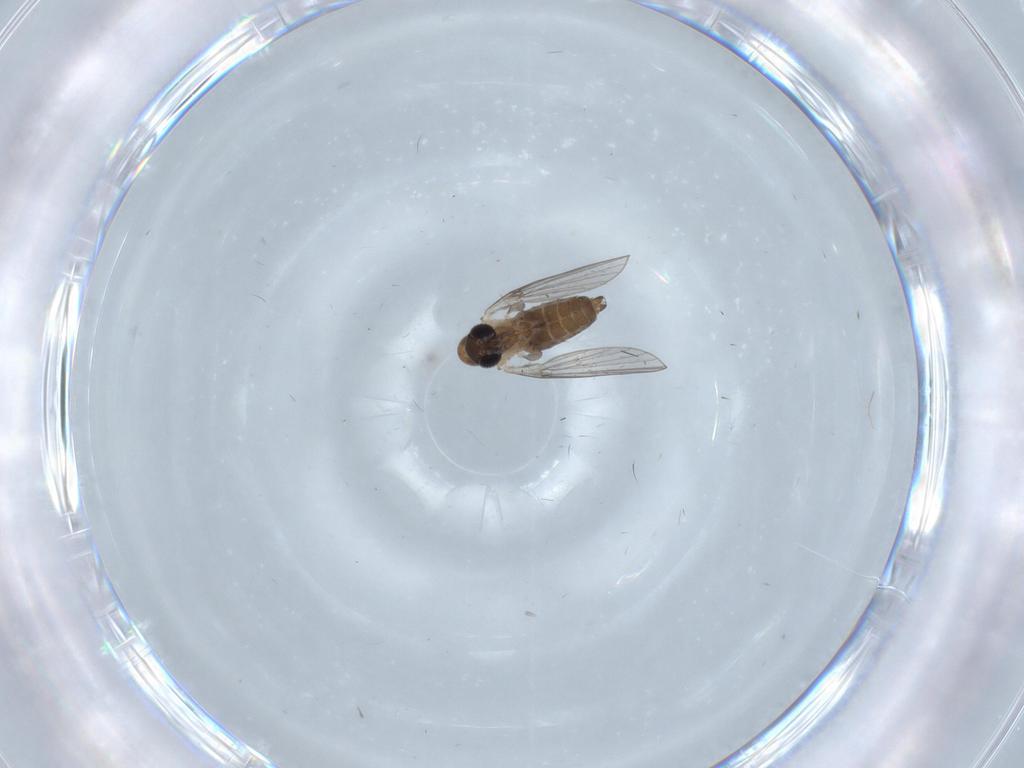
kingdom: Animalia
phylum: Arthropoda
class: Insecta
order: Diptera
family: Psychodidae
